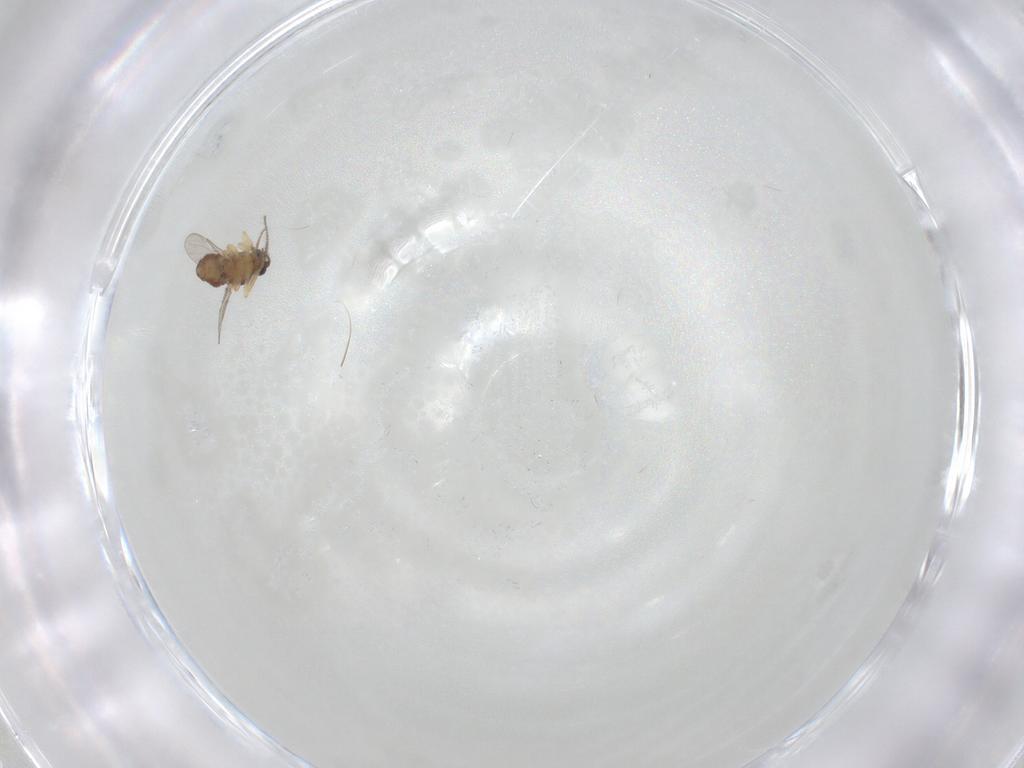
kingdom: Animalia
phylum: Arthropoda
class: Insecta
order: Diptera
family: Ceratopogonidae
